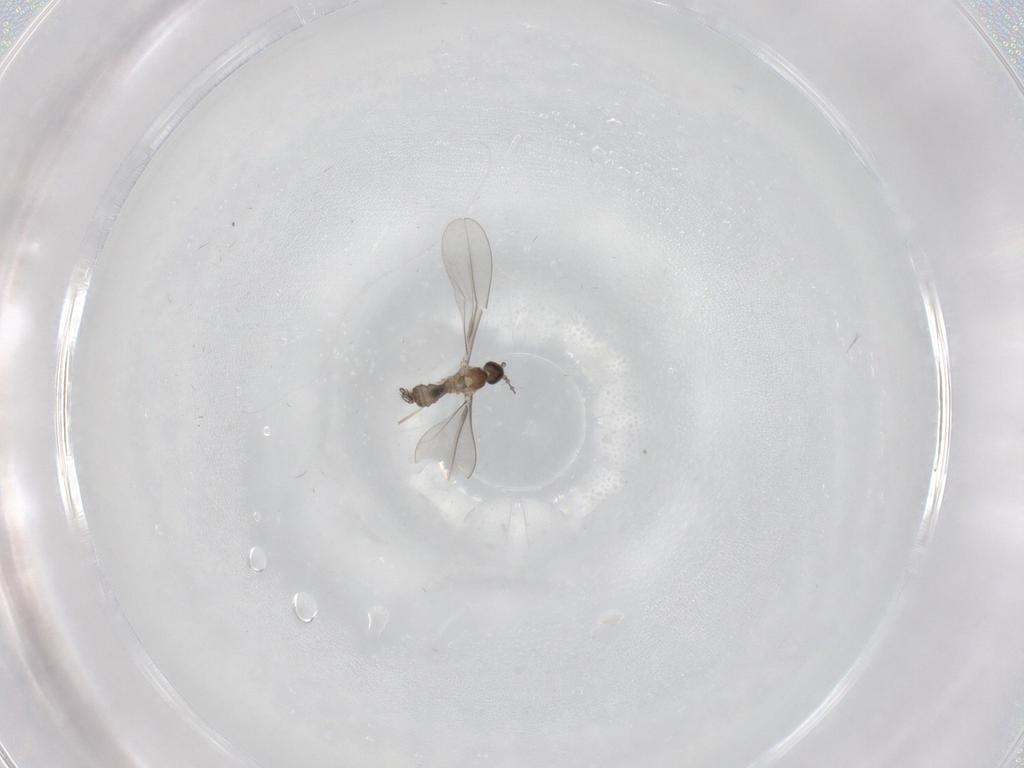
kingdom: Animalia
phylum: Arthropoda
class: Insecta
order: Diptera
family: Cecidomyiidae
